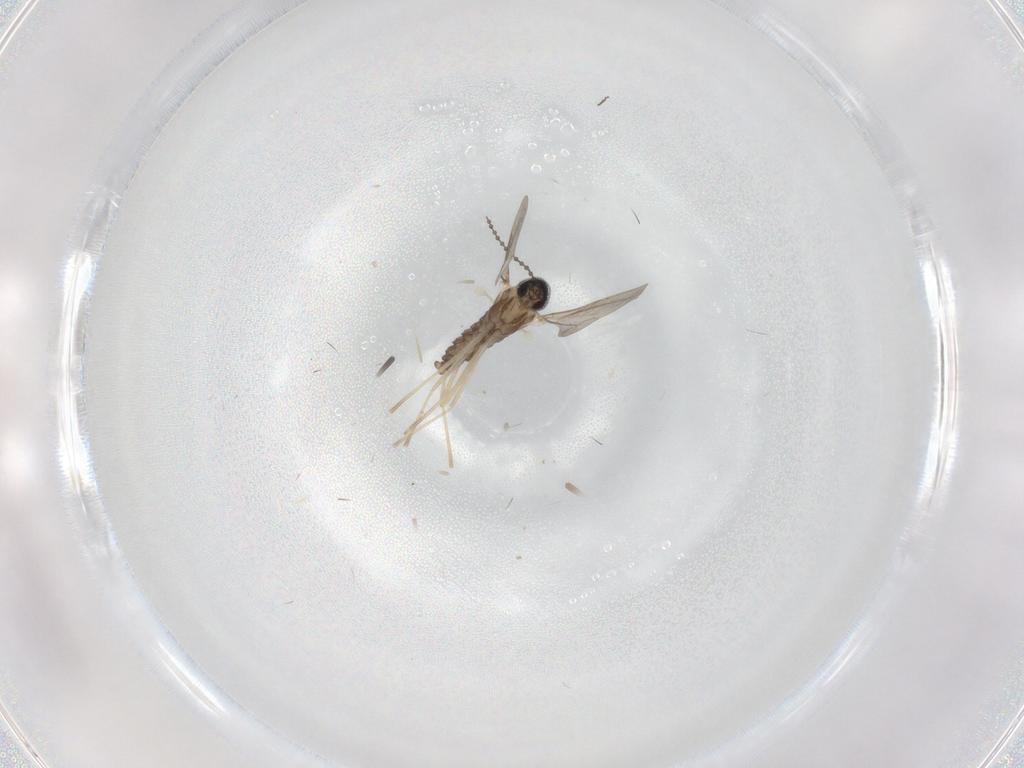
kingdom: Animalia
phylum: Arthropoda
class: Insecta
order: Diptera
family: Cecidomyiidae
